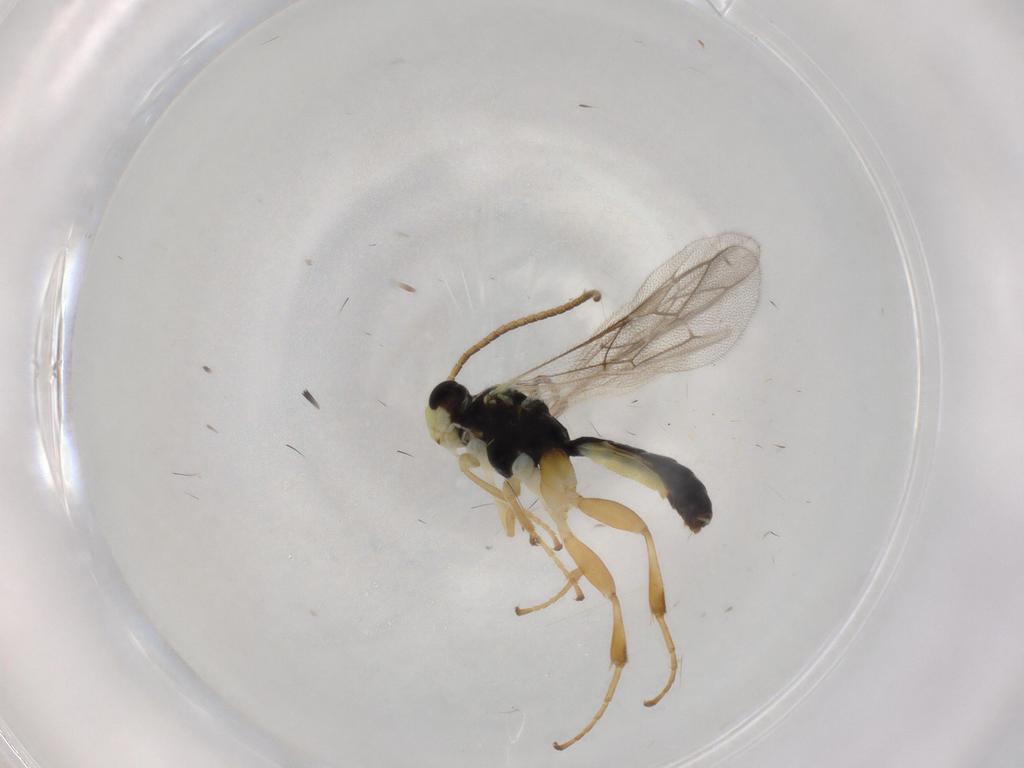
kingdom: Animalia
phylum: Arthropoda
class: Insecta
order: Hymenoptera
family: Ichneumonidae
